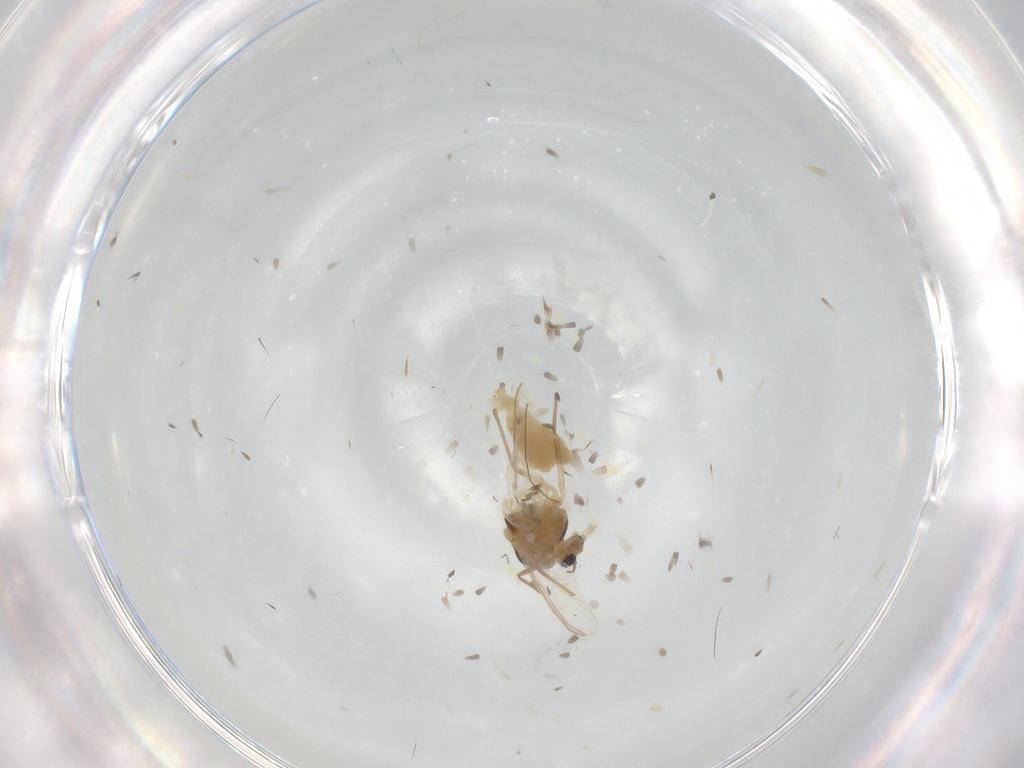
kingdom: Animalia
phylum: Arthropoda
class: Insecta
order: Diptera
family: Chironomidae
